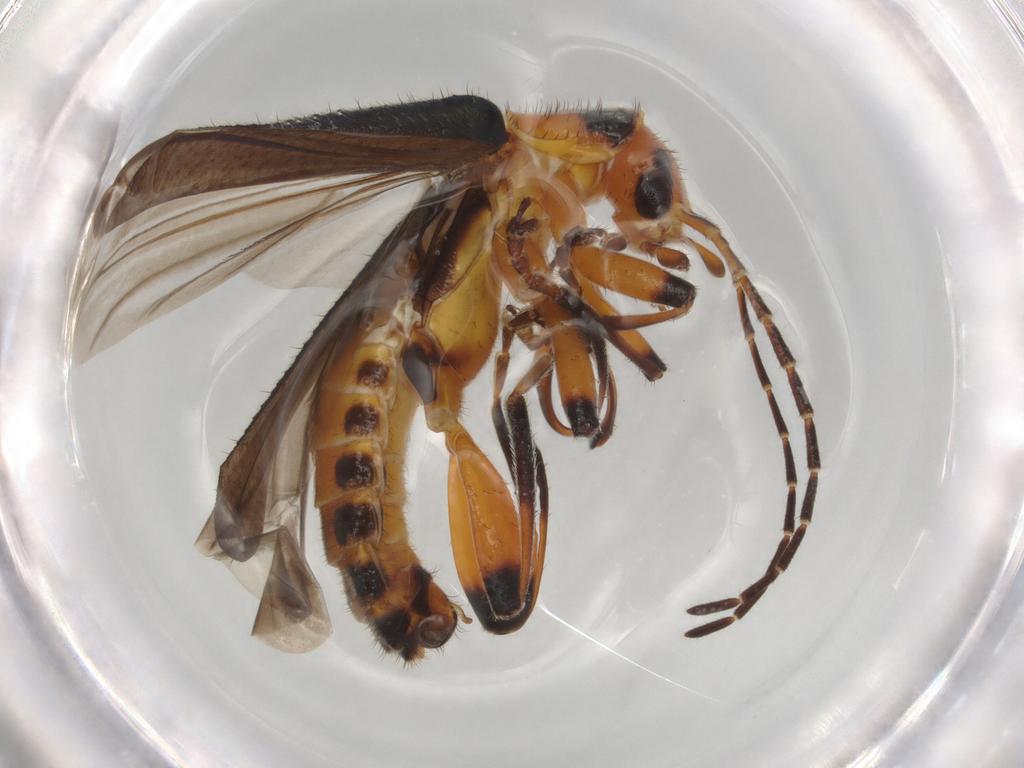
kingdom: Animalia
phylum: Arthropoda
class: Insecta
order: Coleoptera
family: Cantharidae
